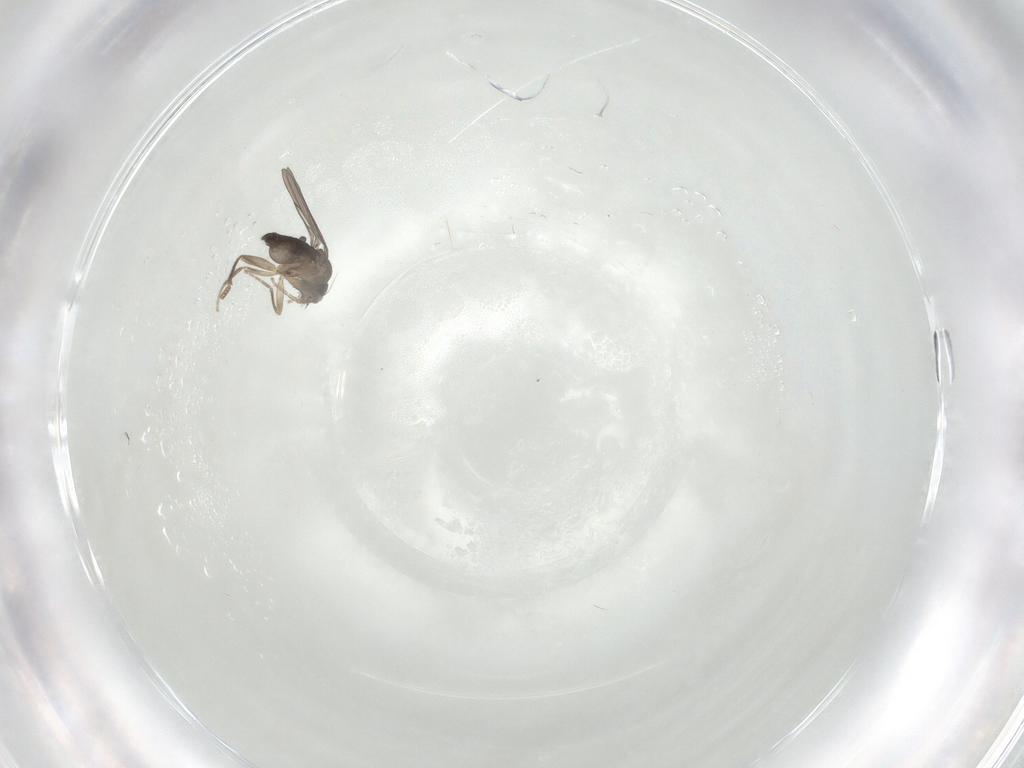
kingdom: Animalia
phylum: Arthropoda
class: Insecta
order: Diptera
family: Sciaridae
